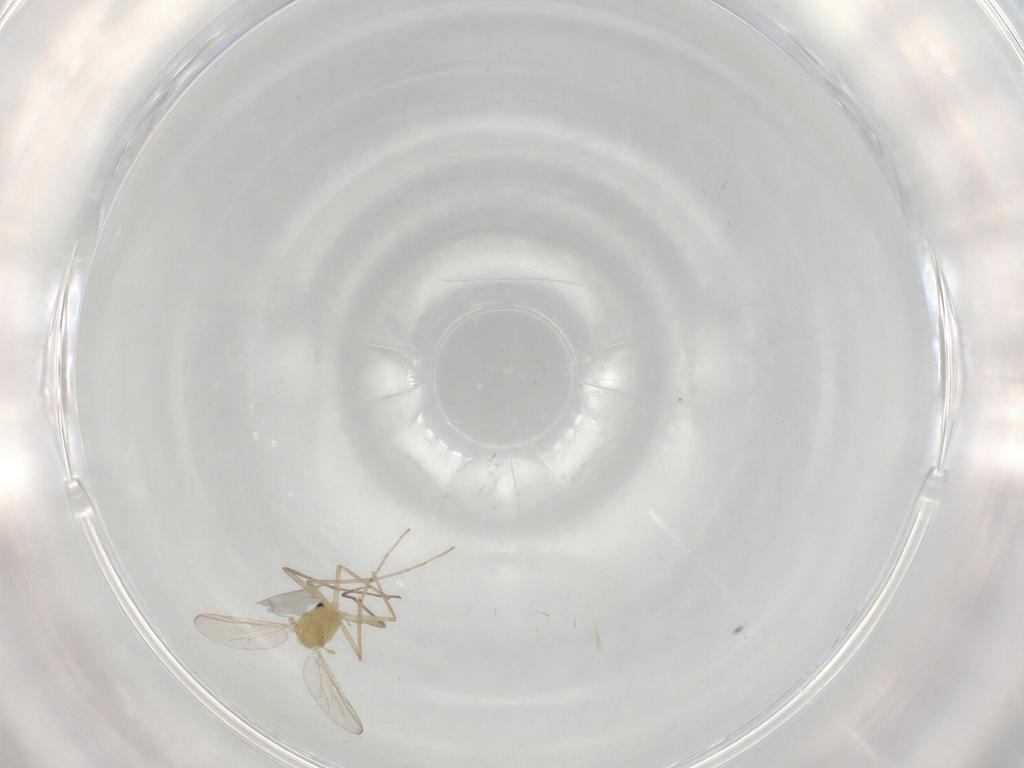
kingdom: Animalia
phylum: Arthropoda
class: Insecta
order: Diptera
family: Chironomidae
